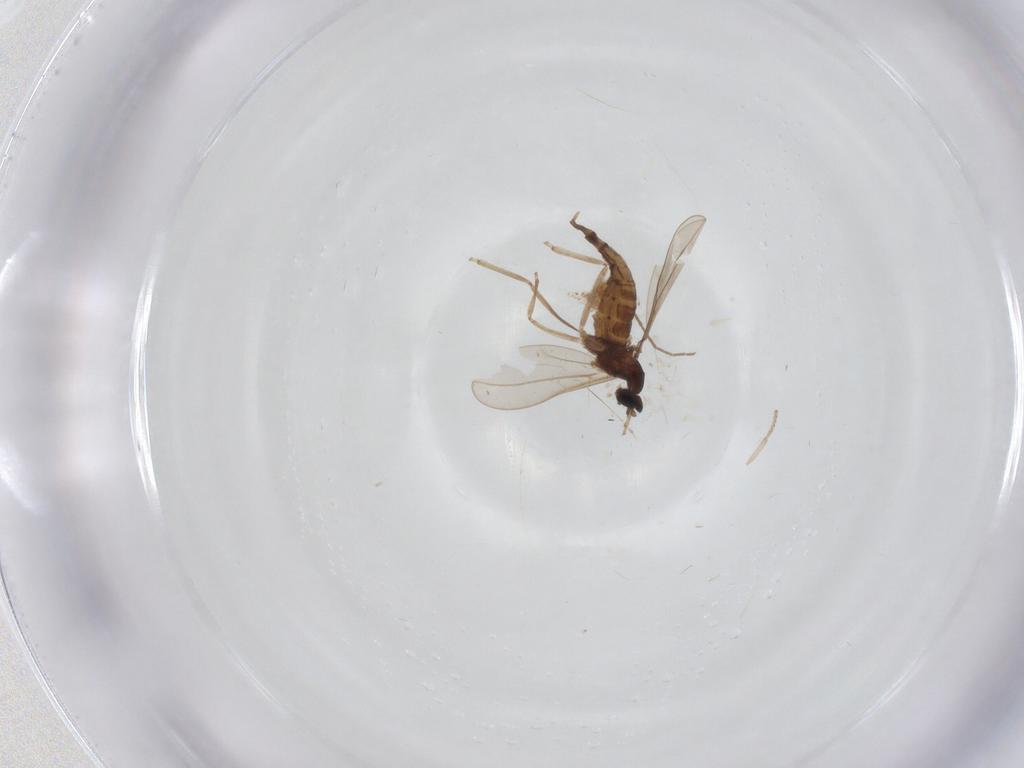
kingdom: Animalia
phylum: Arthropoda
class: Insecta
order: Diptera
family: Cecidomyiidae
